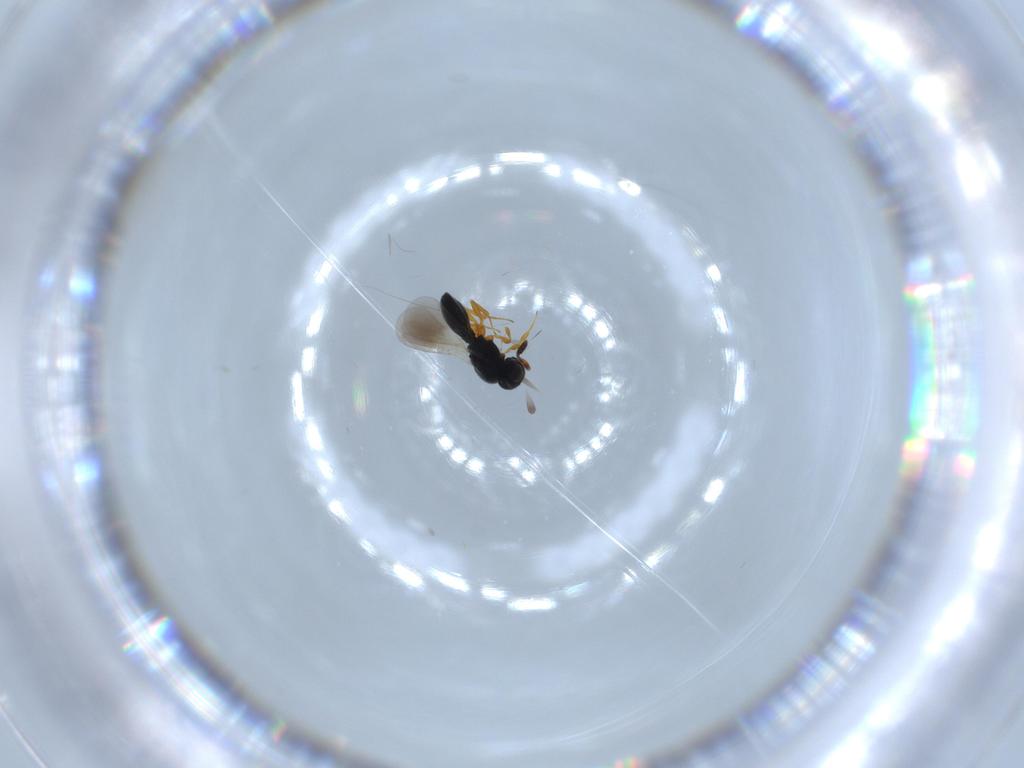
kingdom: Animalia
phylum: Arthropoda
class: Insecta
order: Hymenoptera
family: Platygastridae
